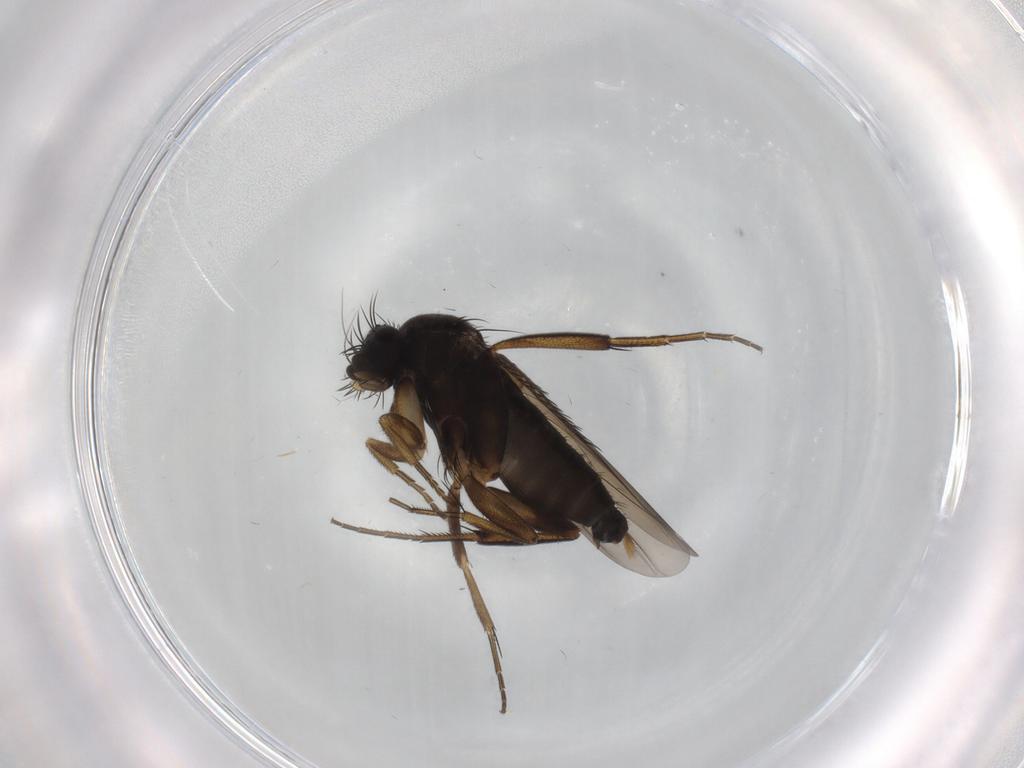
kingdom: Animalia
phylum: Arthropoda
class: Insecta
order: Diptera
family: Phoridae
